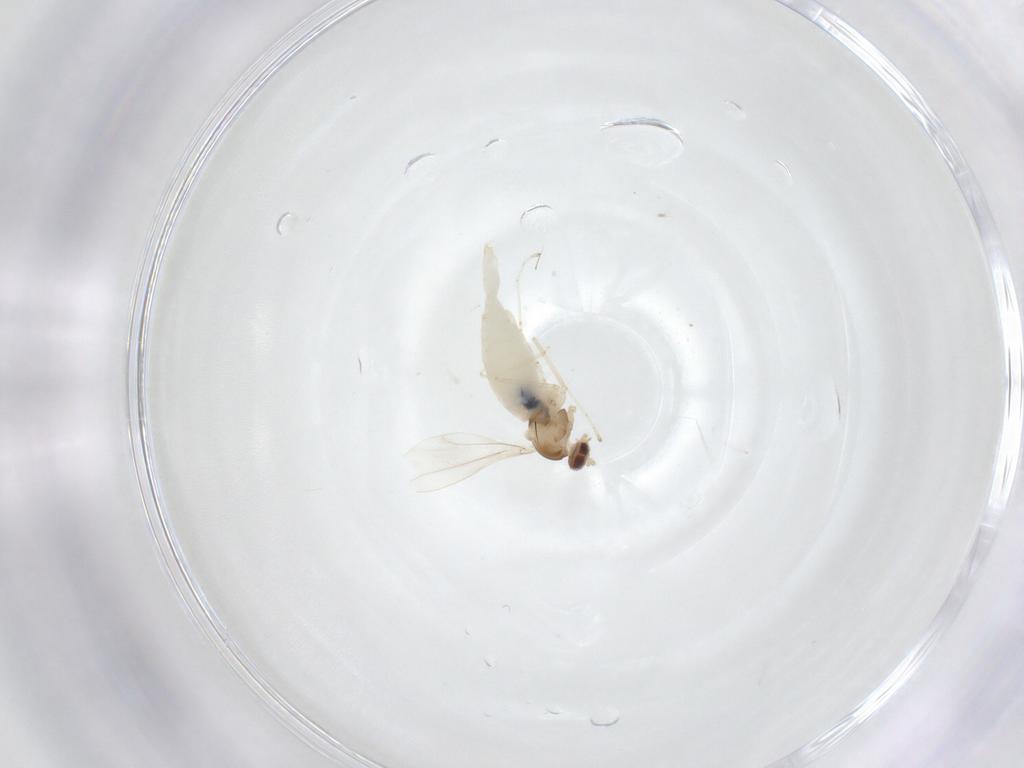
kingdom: Animalia
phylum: Arthropoda
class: Insecta
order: Diptera
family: Cecidomyiidae
